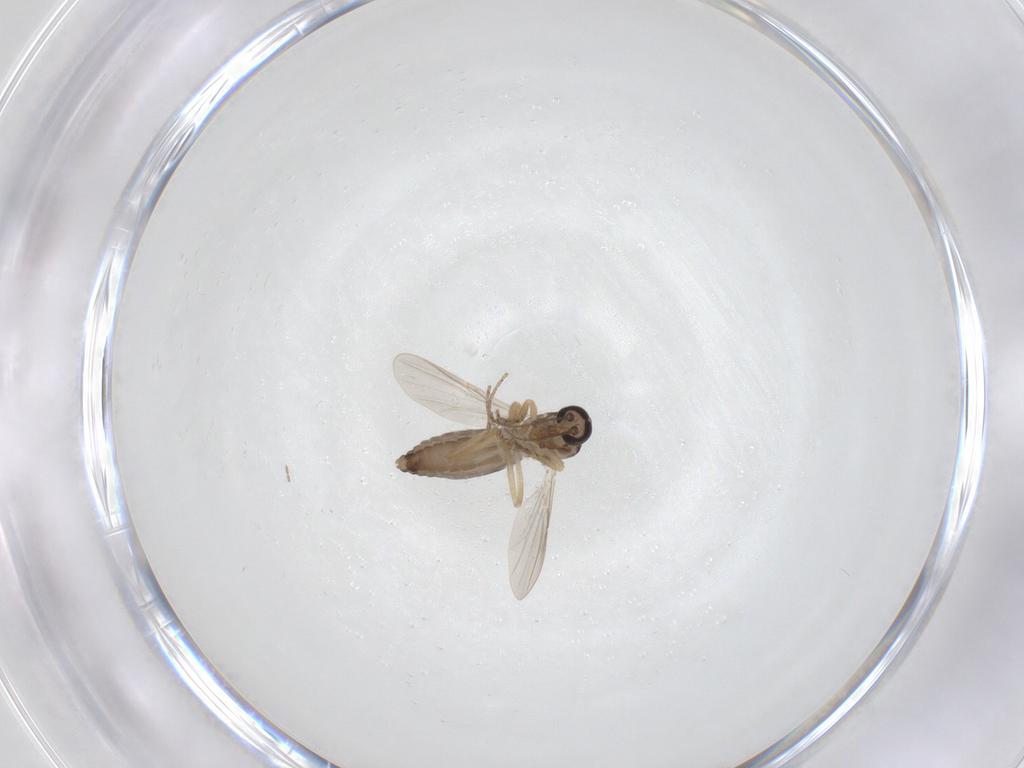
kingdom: Animalia
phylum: Arthropoda
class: Insecta
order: Diptera
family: Ceratopogonidae
